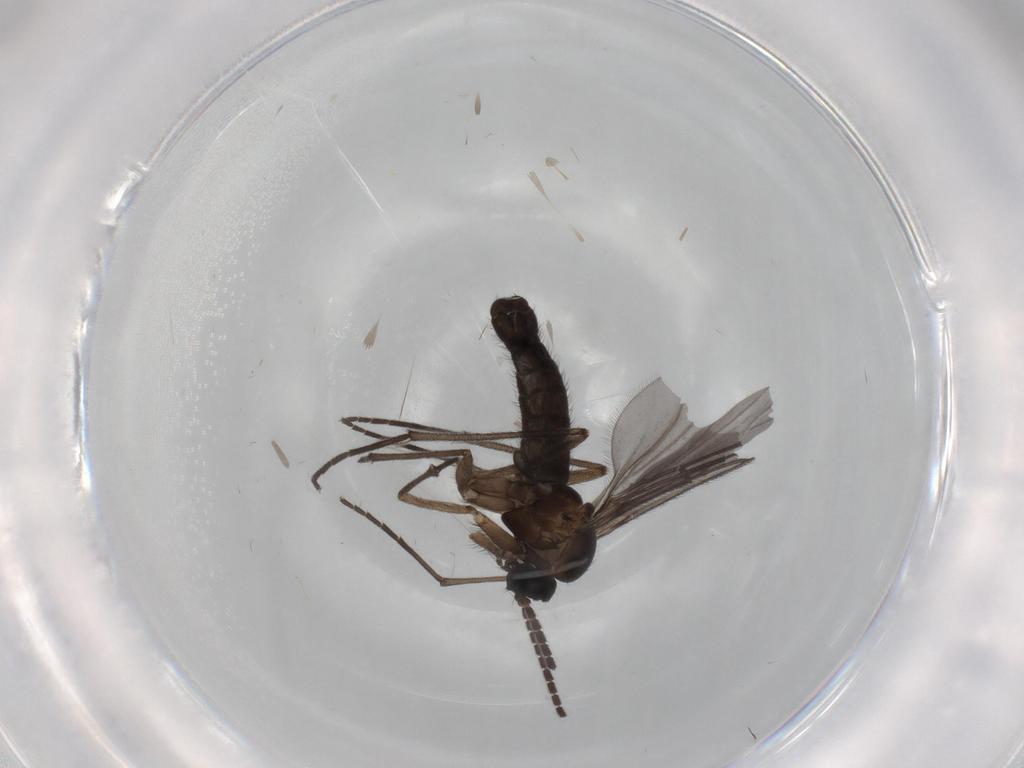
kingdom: Animalia
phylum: Arthropoda
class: Insecta
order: Diptera
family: Sciaridae
